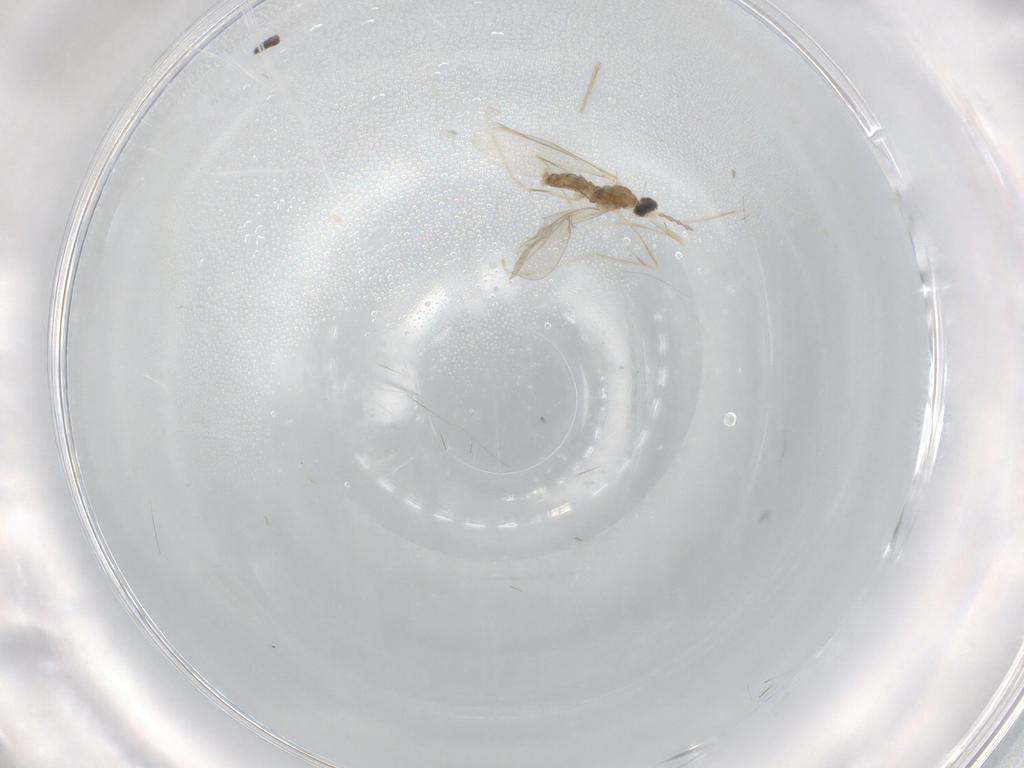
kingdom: Animalia
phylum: Arthropoda
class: Insecta
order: Diptera
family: Cecidomyiidae
